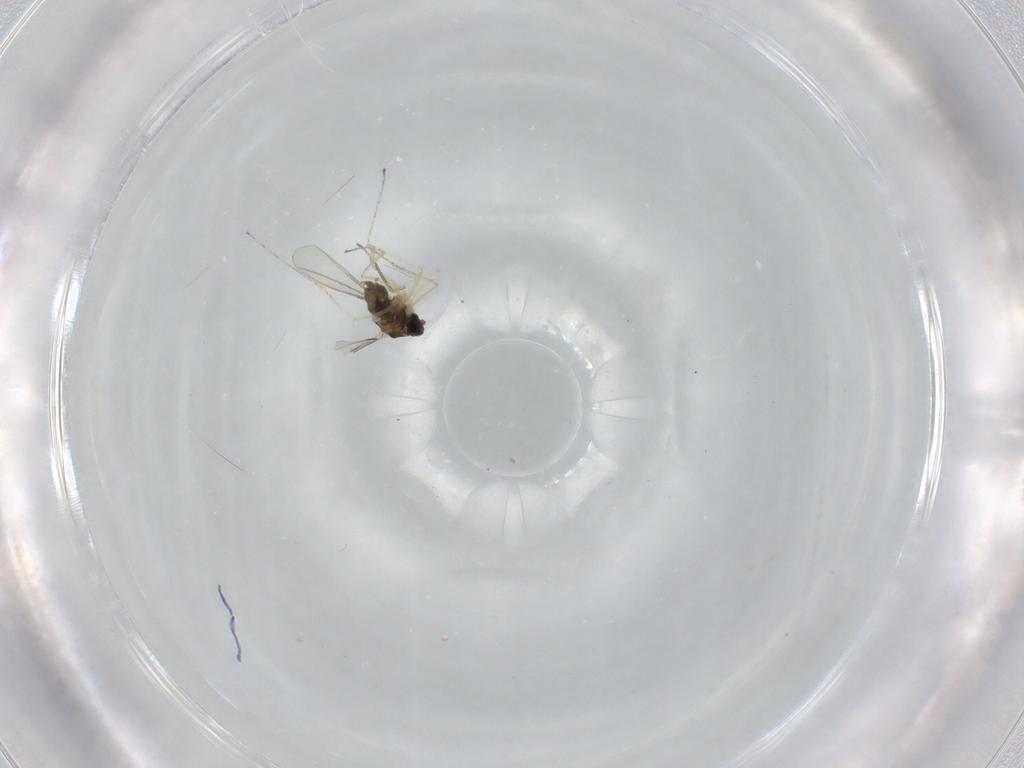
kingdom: Animalia
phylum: Arthropoda
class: Insecta
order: Diptera
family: Cecidomyiidae
